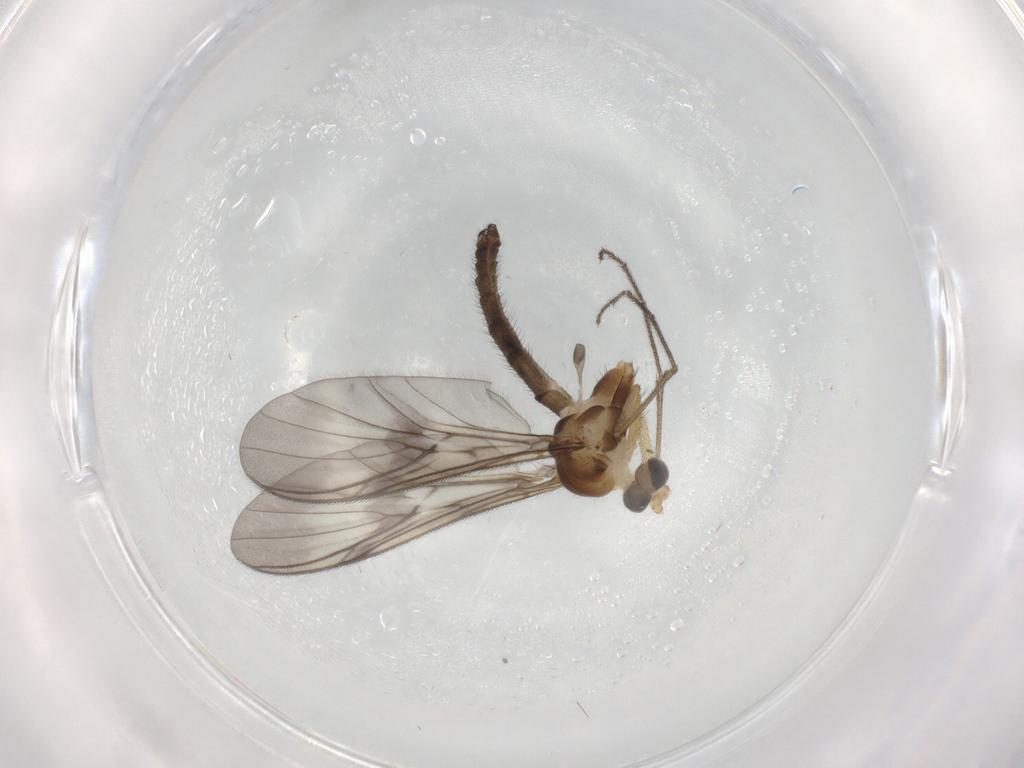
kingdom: Animalia
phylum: Arthropoda
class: Insecta
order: Diptera
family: Keroplatidae
